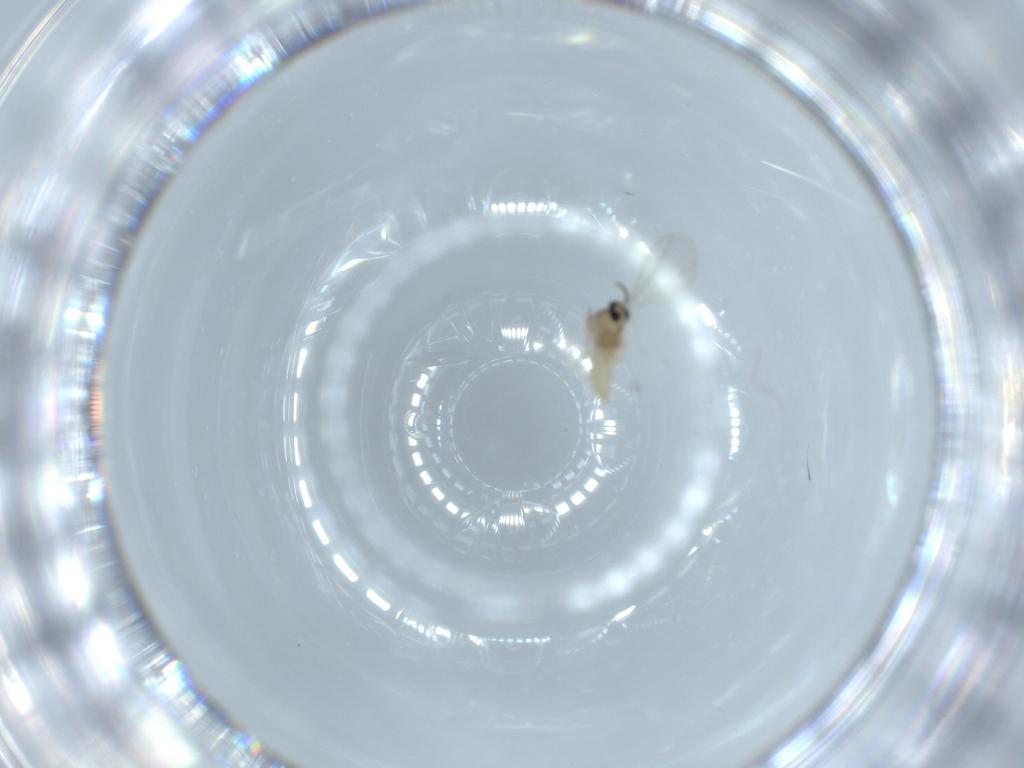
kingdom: Animalia
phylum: Arthropoda
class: Insecta
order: Diptera
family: Cecidomyiidae
